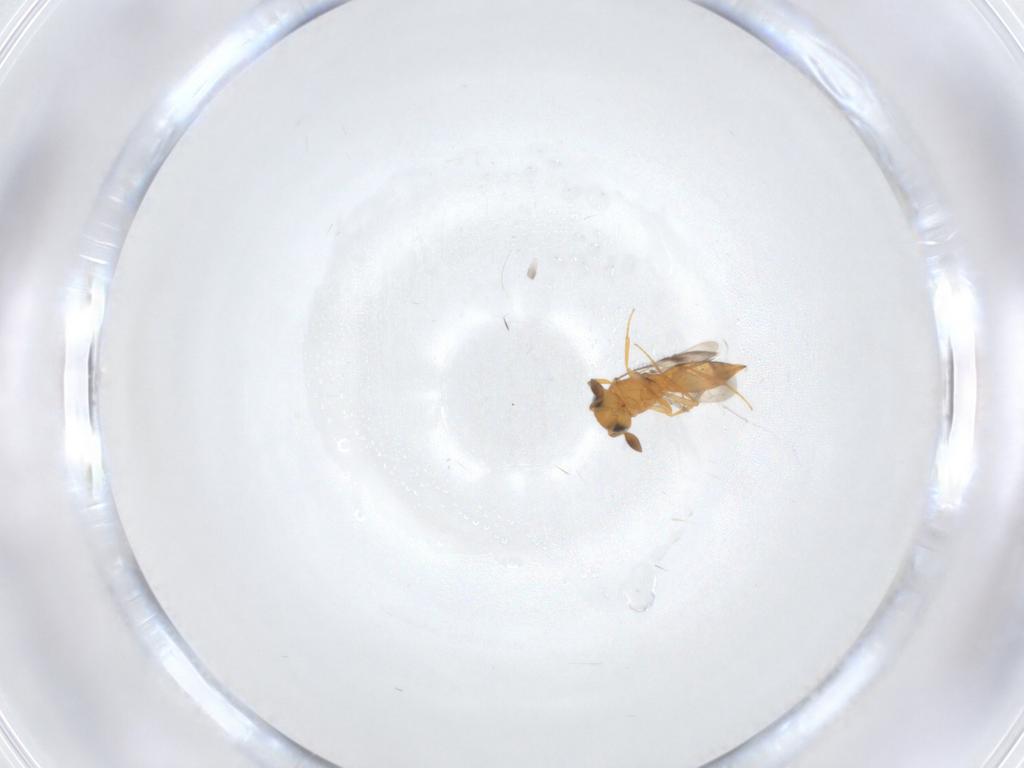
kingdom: Animalia
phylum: Arthropoda
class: Insecta
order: Hymenoptera
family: Scelionidae
